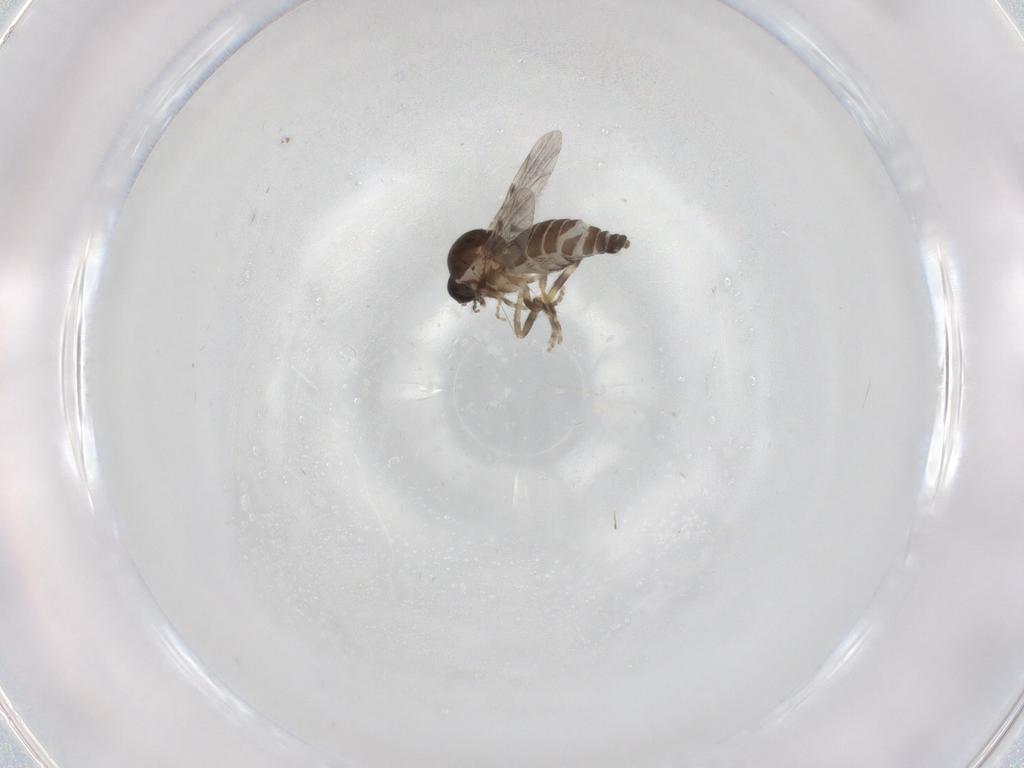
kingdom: Animalia
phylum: Arthropoda
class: Insecta
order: Diptera
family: Ceratopogonidae
